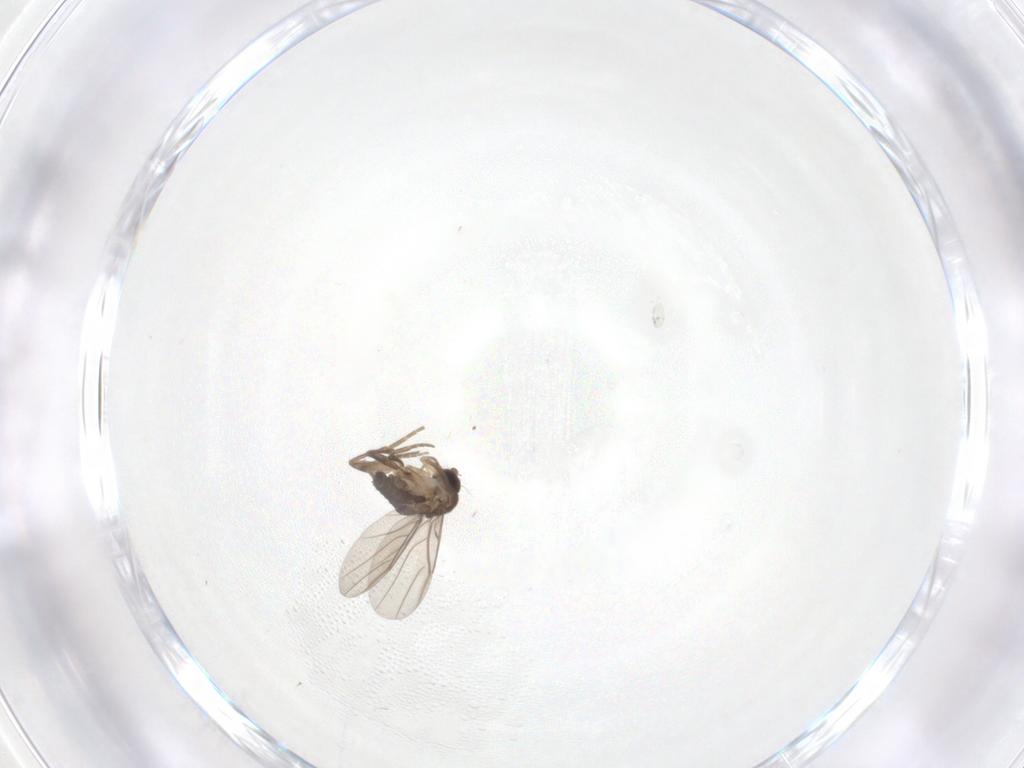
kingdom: Animalia
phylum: Arthropoda
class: Insecta
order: Diptera
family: Phoridae
